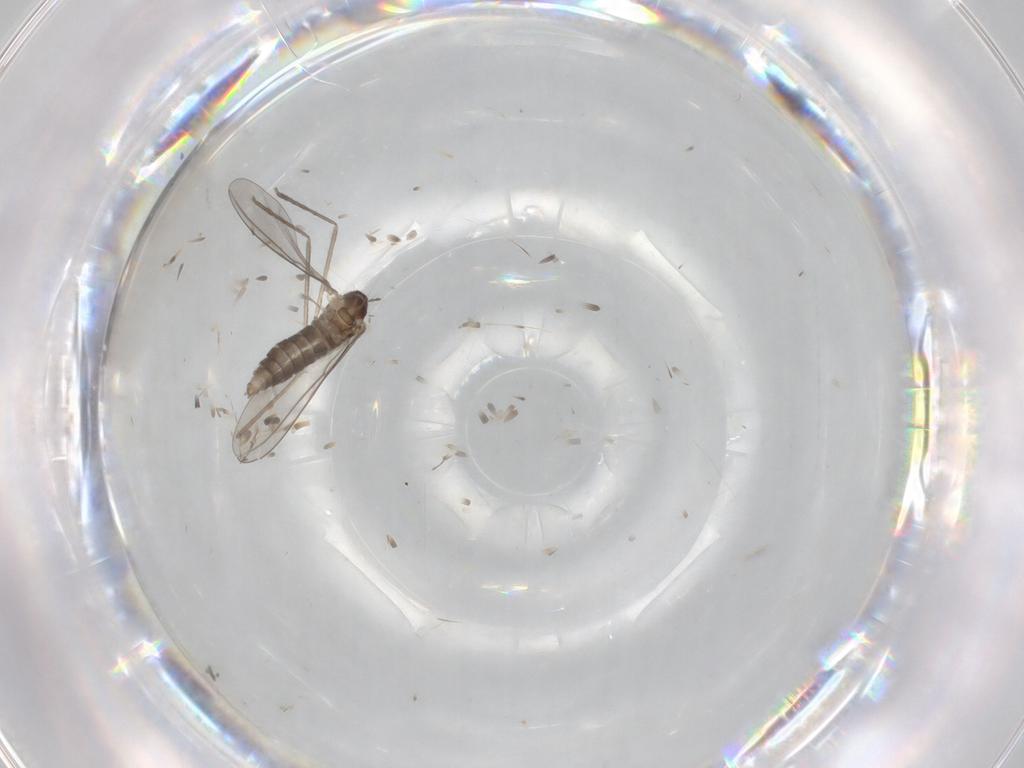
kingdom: Animalia
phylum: Arthropoda
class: Insecta
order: Diptera
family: Cecidomyiidae
